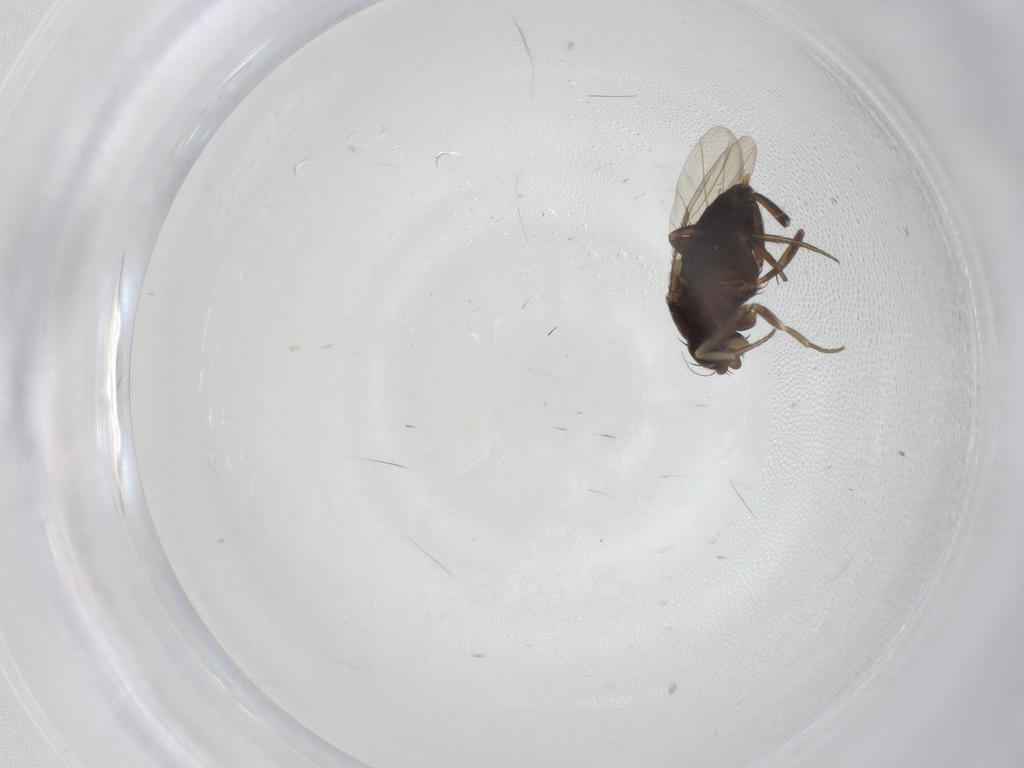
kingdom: Animalia
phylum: Arthropoda
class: Insecta
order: Diptera
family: Phoridae
